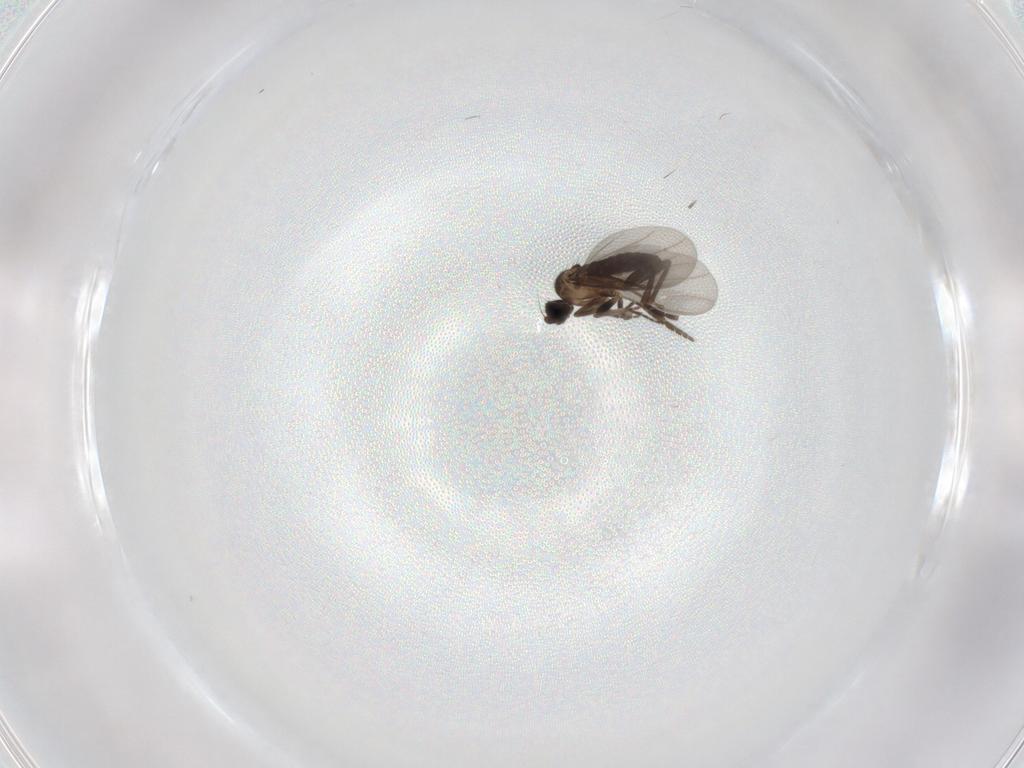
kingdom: Animalia
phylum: Arthropoda
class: Insecta
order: Diptera
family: Phoridae
